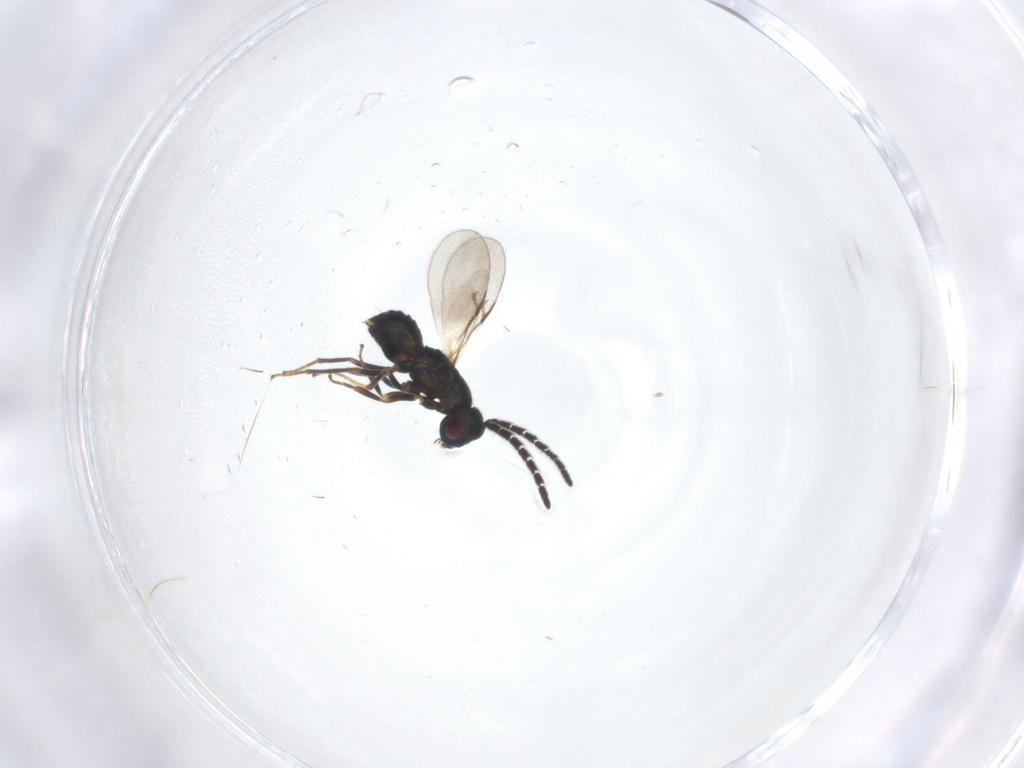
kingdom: Animalia
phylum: Arthropoda
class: Insecta
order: Hymenoptera
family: Encyrtidae
